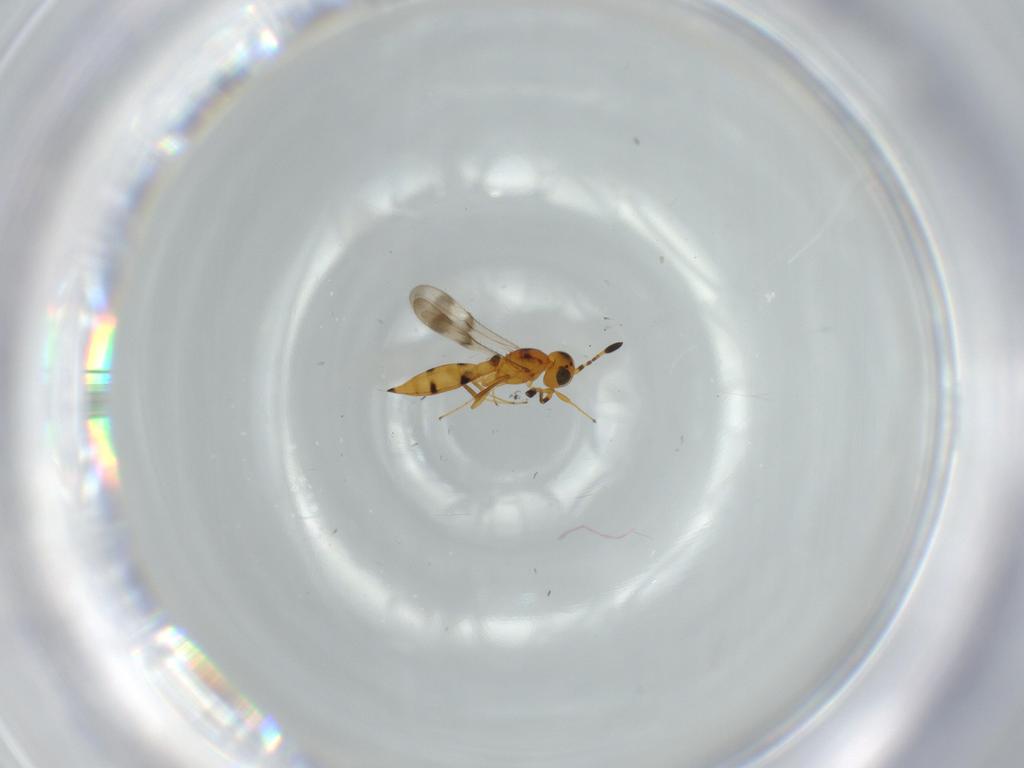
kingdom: Animalia
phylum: Arthropoda
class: Insecta
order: Hymenoptera
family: Scelionidae
